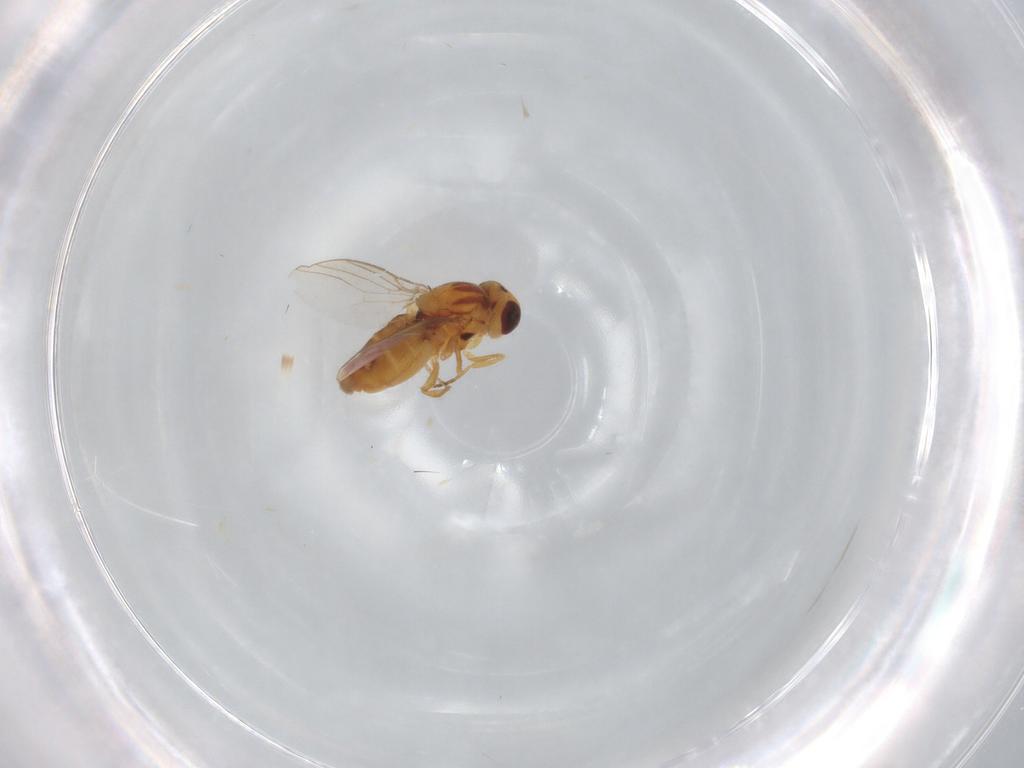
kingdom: Animalia
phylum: Arthropoda
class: Insecta
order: Diptera
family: Chloropidae
